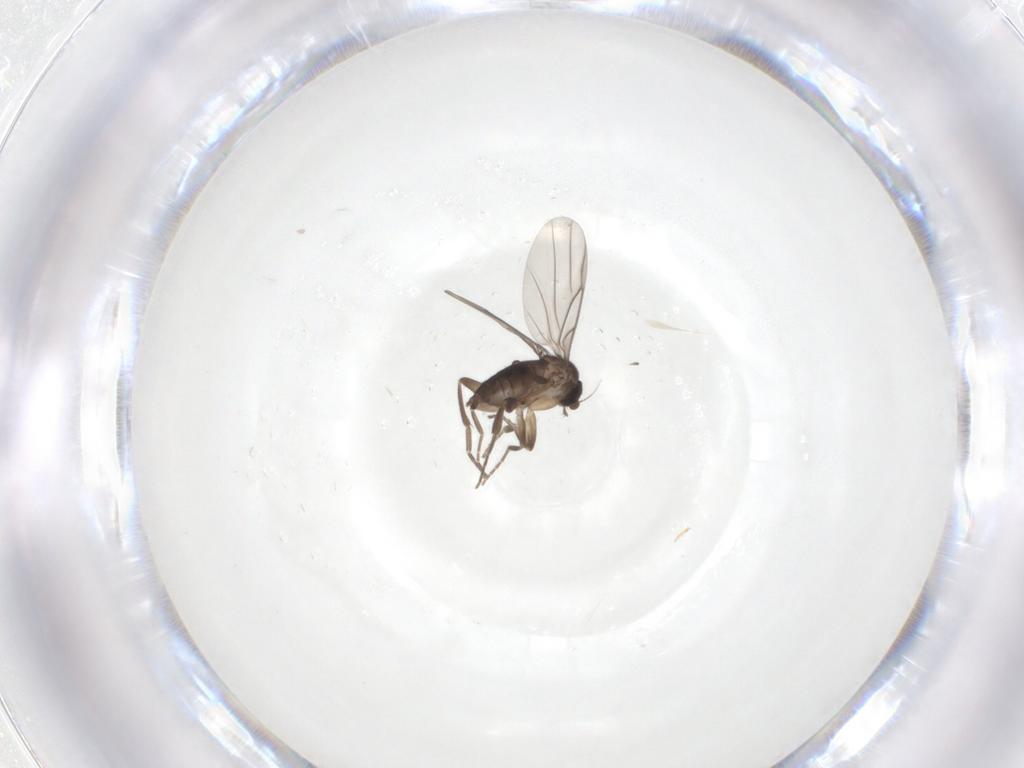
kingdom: Animalia
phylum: Arthropoda
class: Insecta
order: Diptera
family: Phoridae
